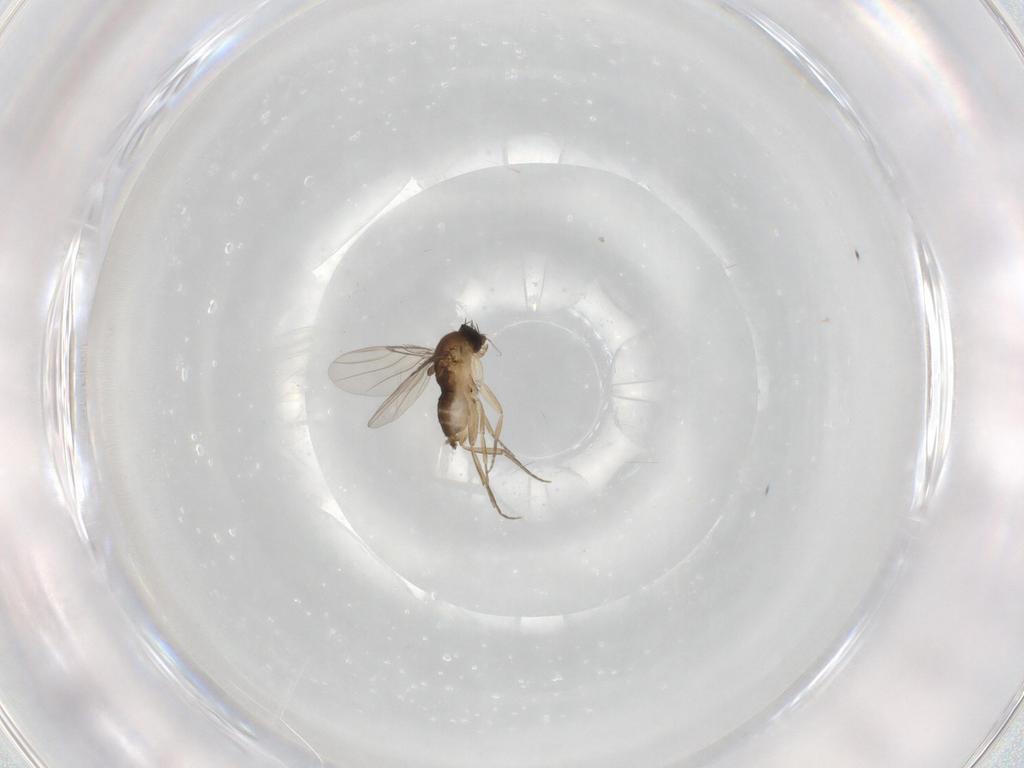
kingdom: Animalia
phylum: Arthropoda
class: Insecta
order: Diptera
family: Phoridae
